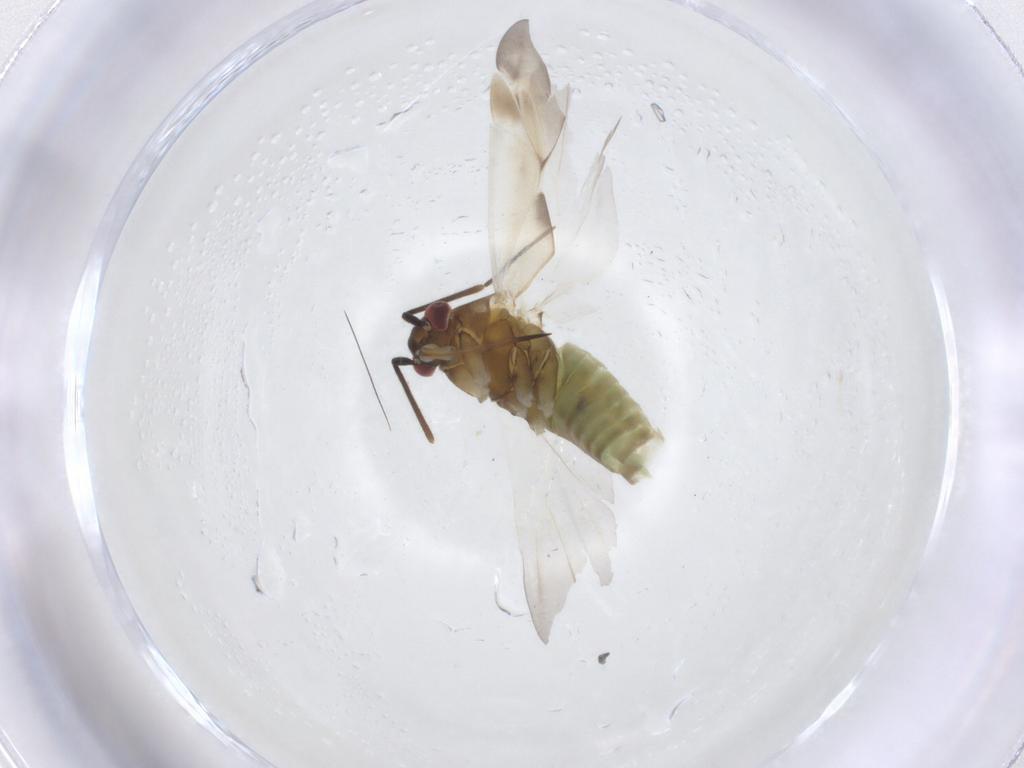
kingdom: Animalia
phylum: Arthropoda
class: Insecta
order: Hemiptera
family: Miridae
